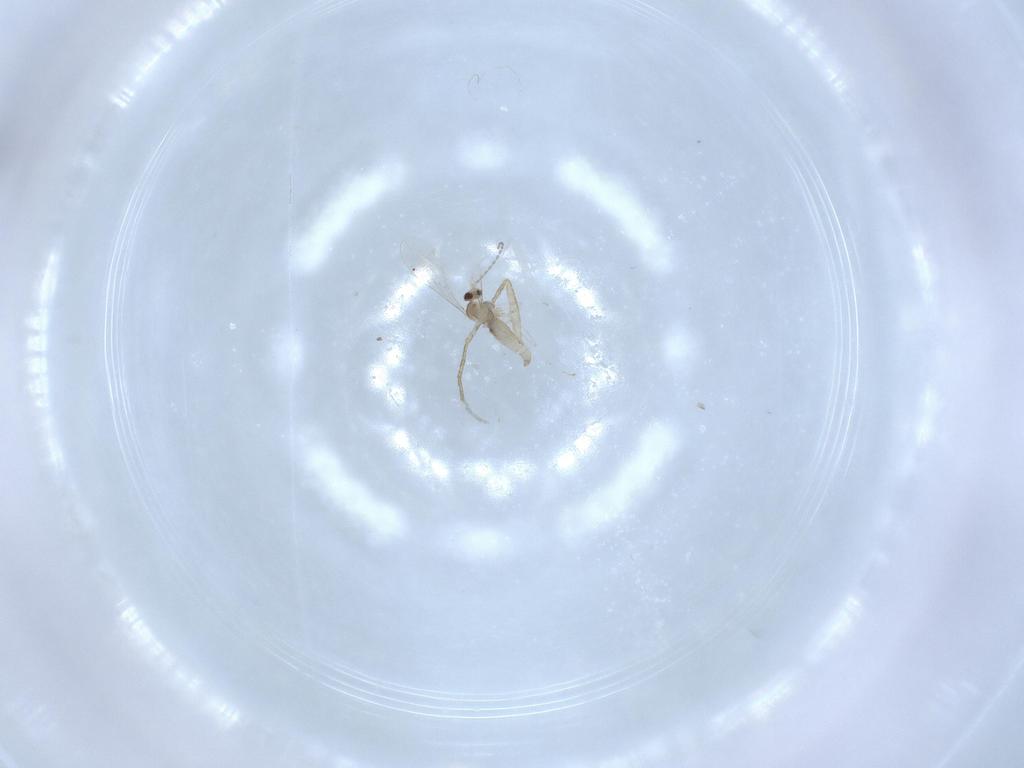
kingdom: Animalia
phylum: Arthropoda
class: Insecta
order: Diptera
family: Cecidomyiidae
